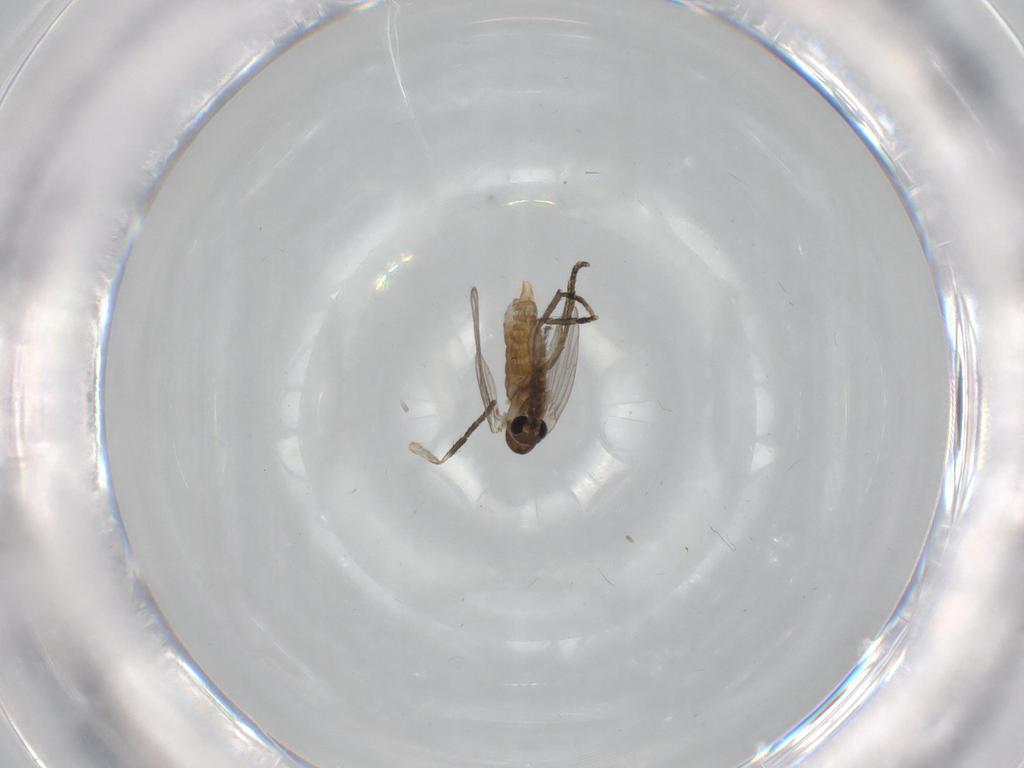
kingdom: Animalia
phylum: Arthropoda
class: Insecta
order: Diptera
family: Psychodidae
